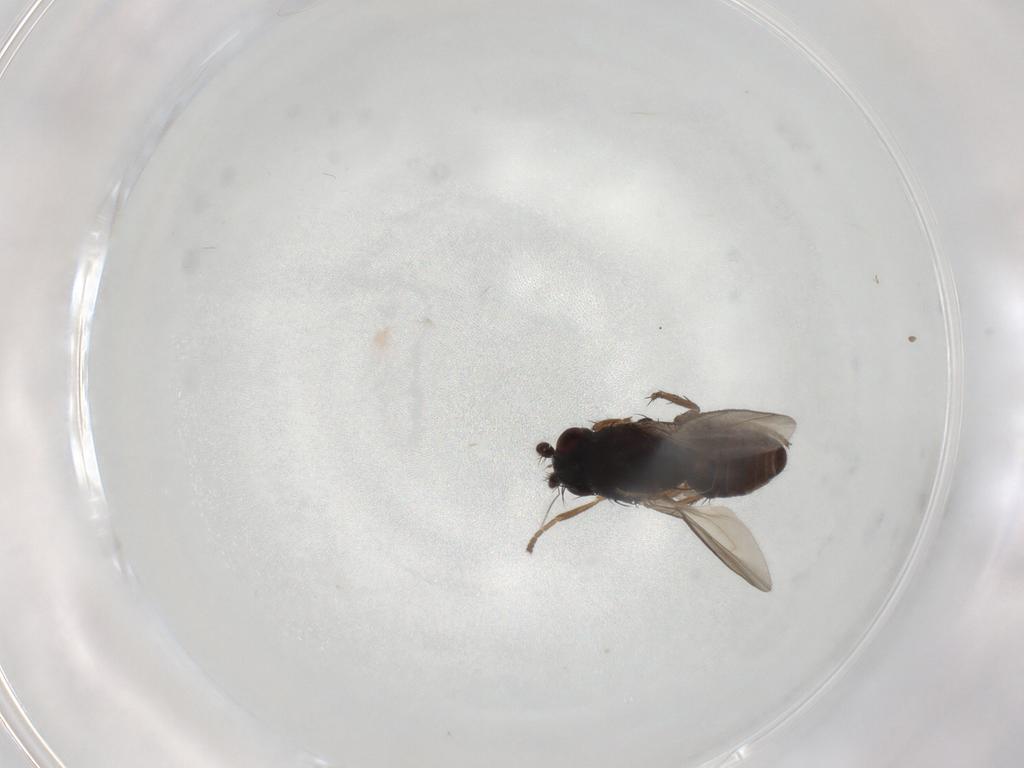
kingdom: Animalia
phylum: Arthropoda
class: Insecta
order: Diptera
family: Sphaeroceridae
